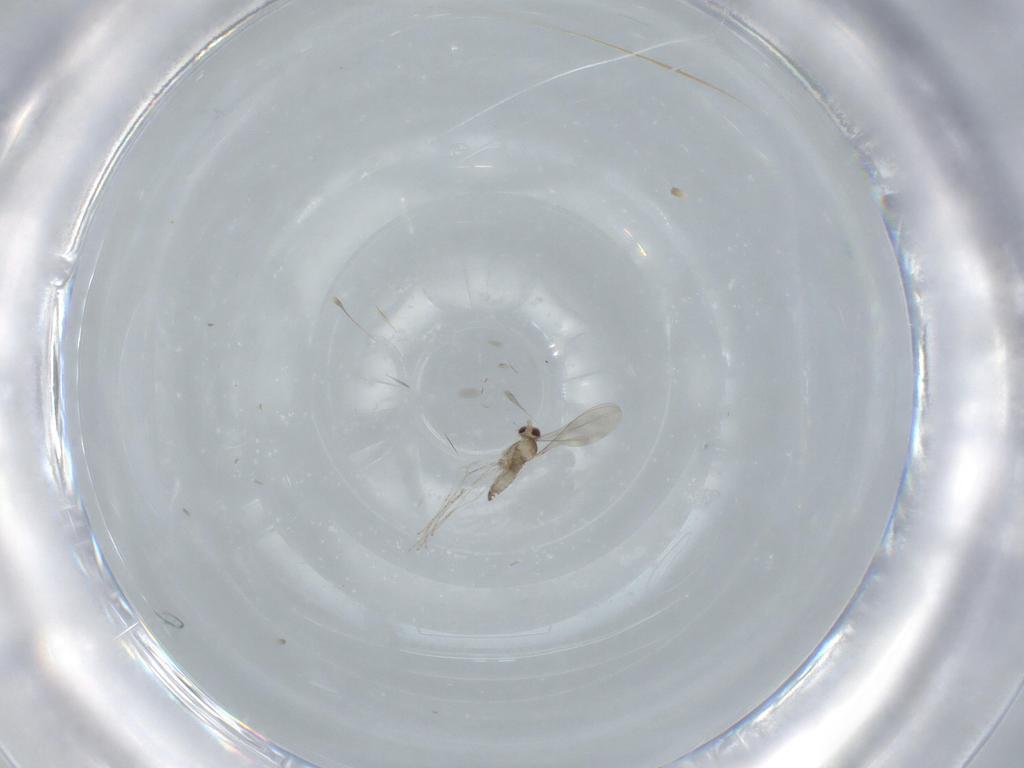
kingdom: Animalia
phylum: Arthropoda
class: Insecta
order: Diptera
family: Cecidomyiidae
